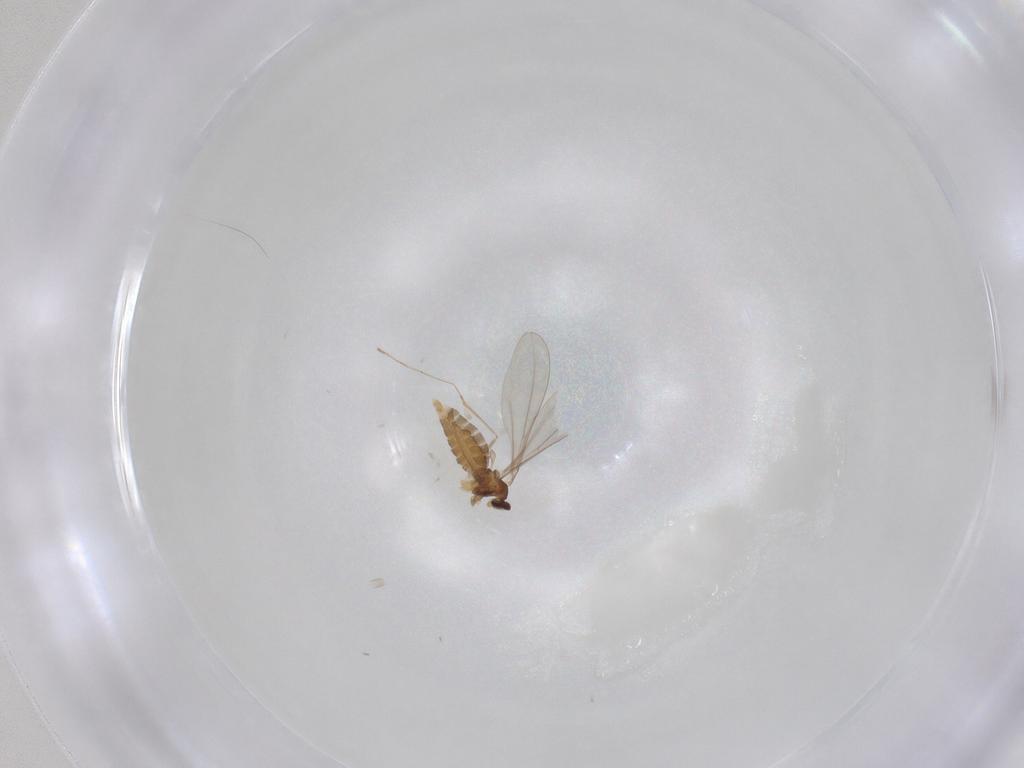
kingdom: Animalia
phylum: Arthropoda
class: Insecta
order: Diptera
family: Cecidomyiidae
